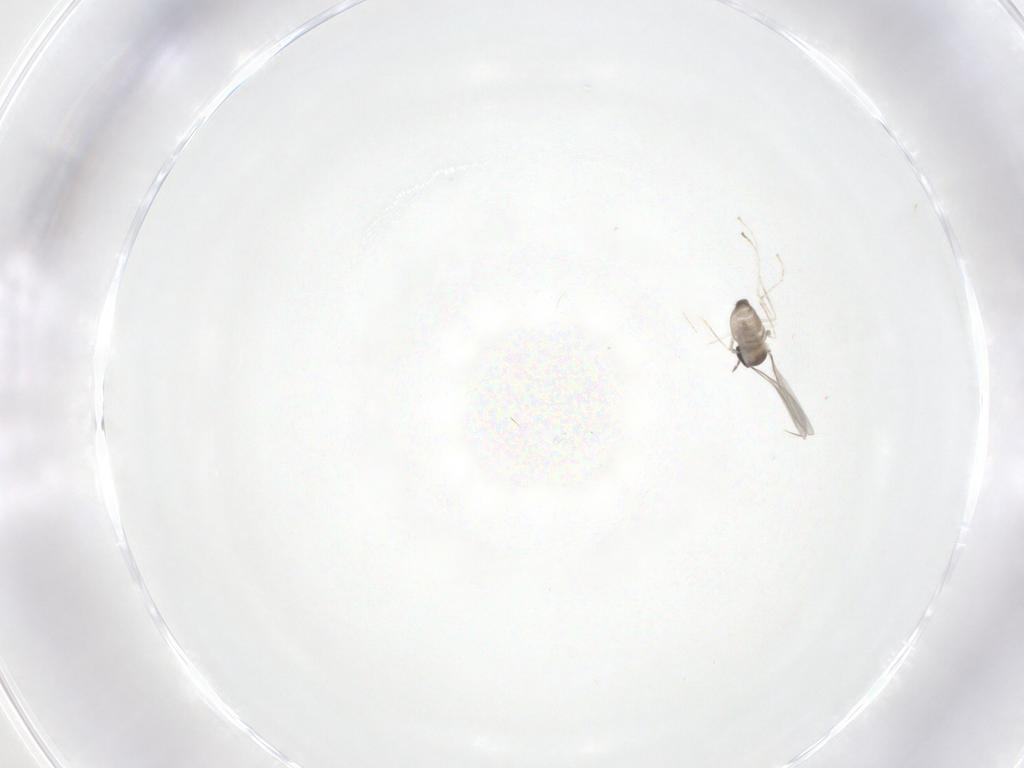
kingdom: Animalia
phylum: Arthropoda
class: Insecta
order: Diptera
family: Cecidomyiidae
